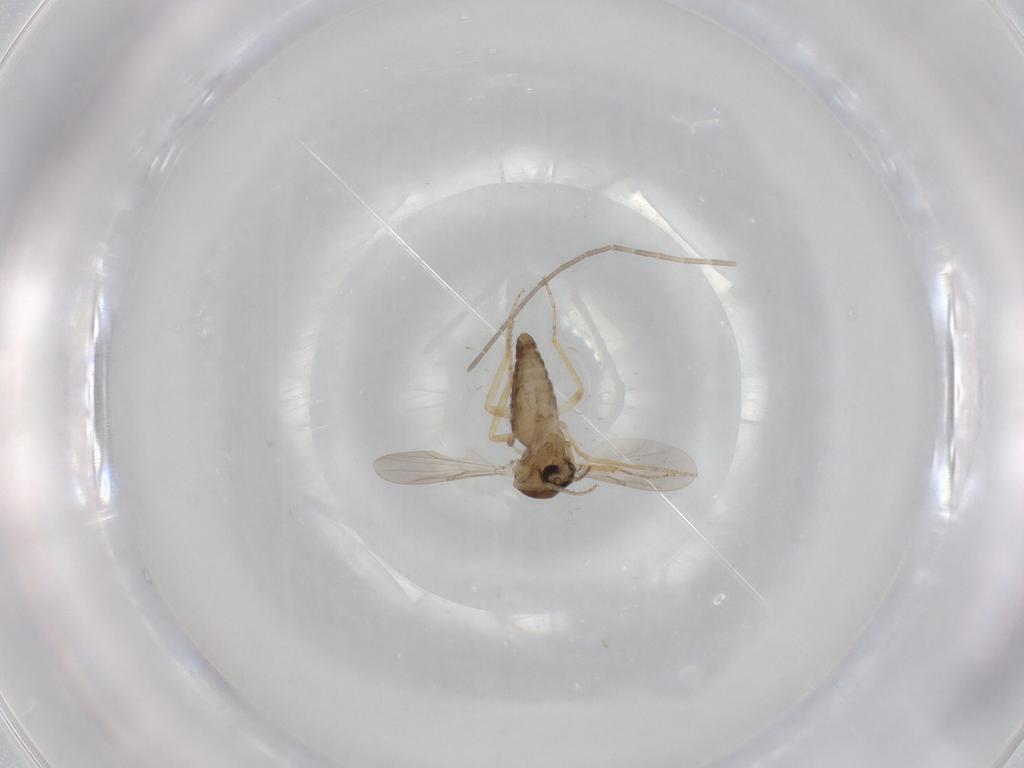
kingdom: Animalia
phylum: Arthropoda
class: Insecta
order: Diptera
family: Ceratopogonidae
